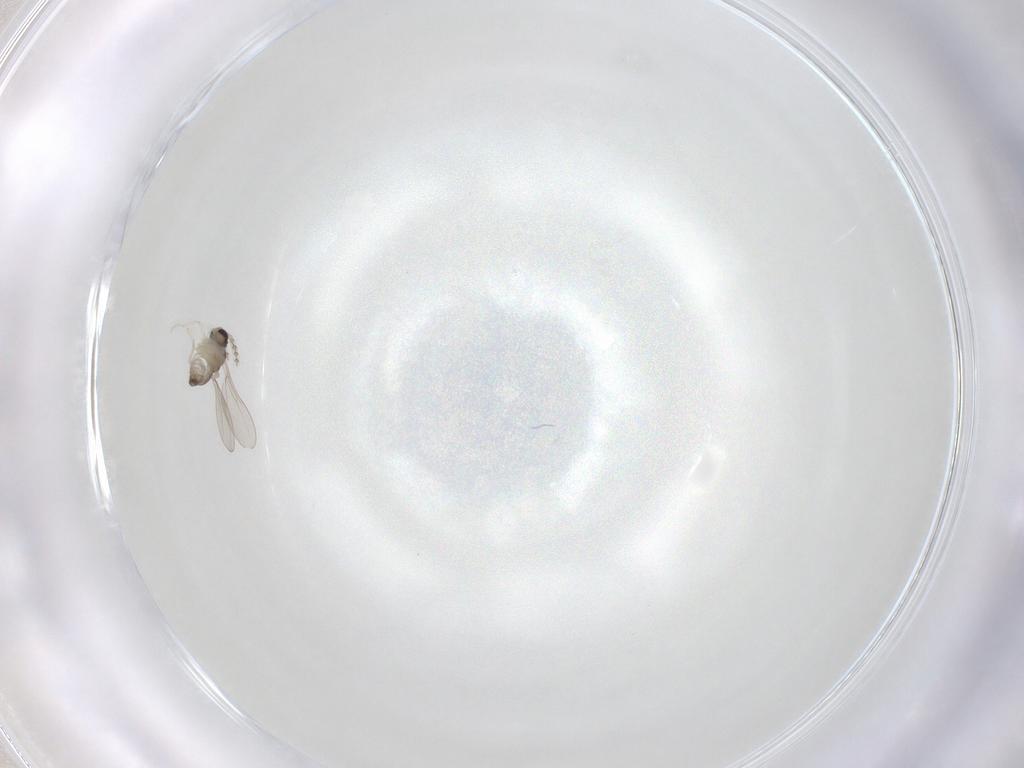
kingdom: Animalia
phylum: Arthropoda
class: Insecta
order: Diptera
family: Cecidomyiidae
